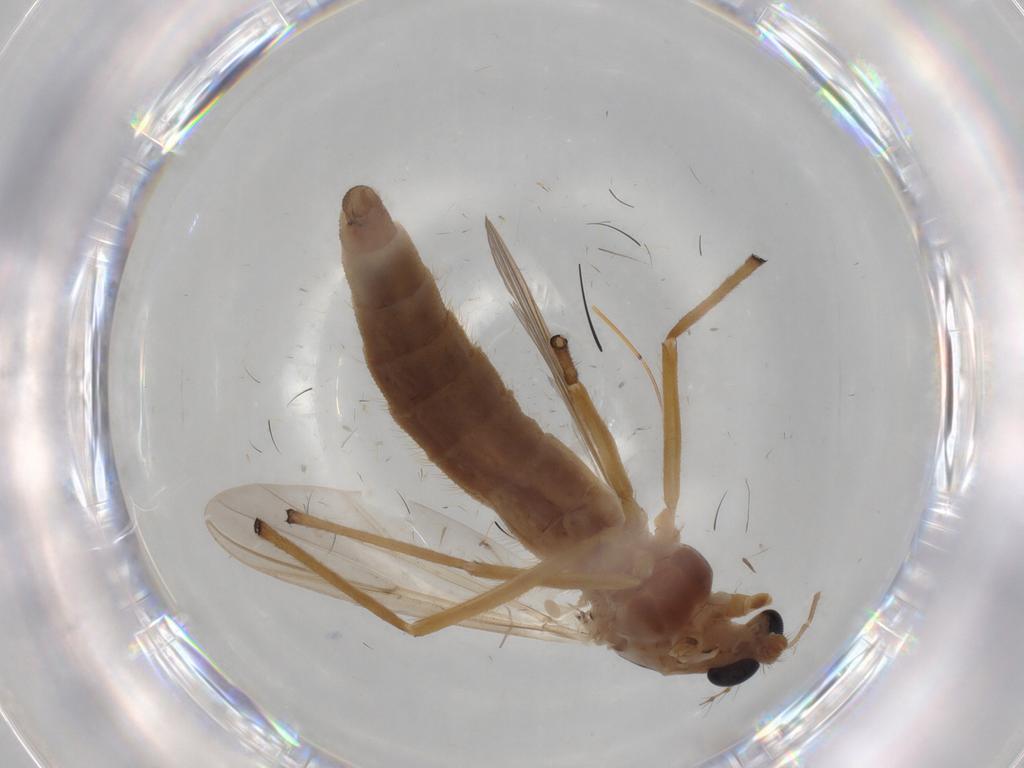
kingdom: Animalia
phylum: Arthropoda
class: Insecta
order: Diptera
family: Chironomidae
